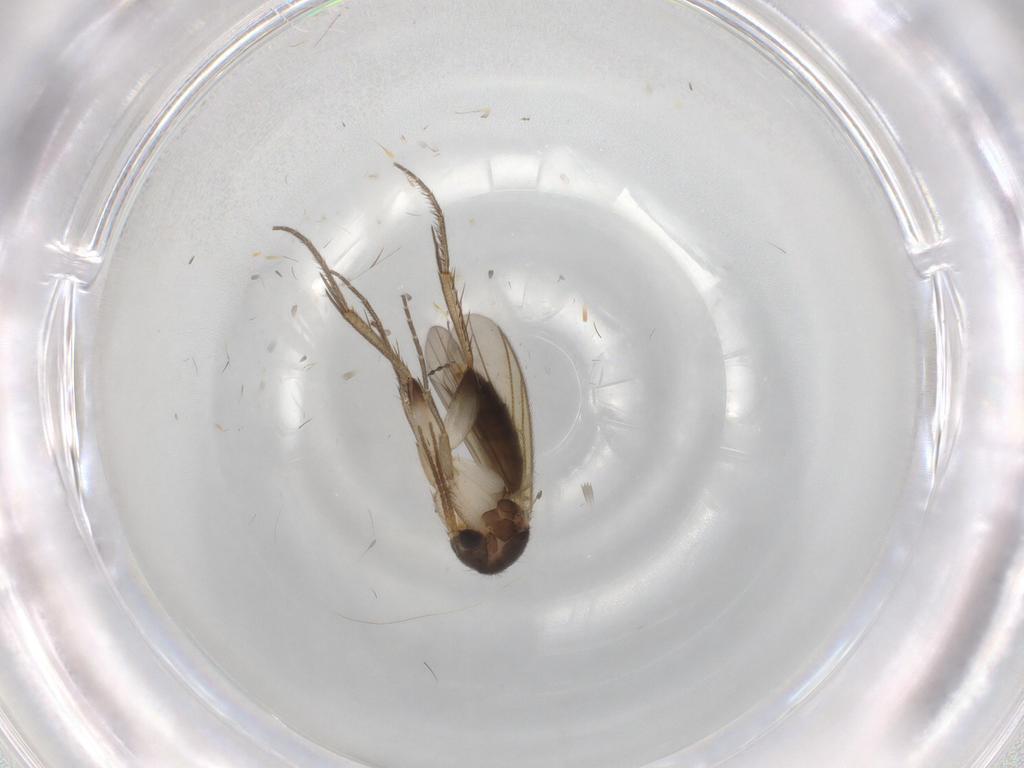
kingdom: Animalia
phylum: Arthropoda
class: Insecta
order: Diptera
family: Mycetophilidae
